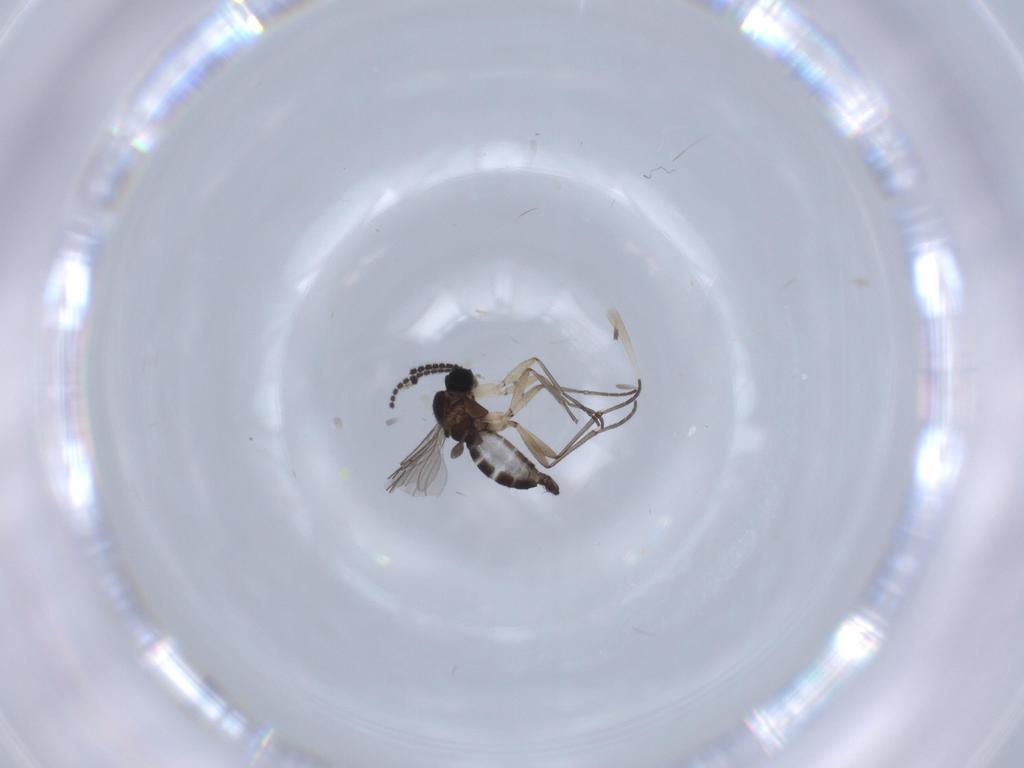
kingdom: Animalia
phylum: Arthropoda
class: Insecta
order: Diptera
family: Sciaridae
